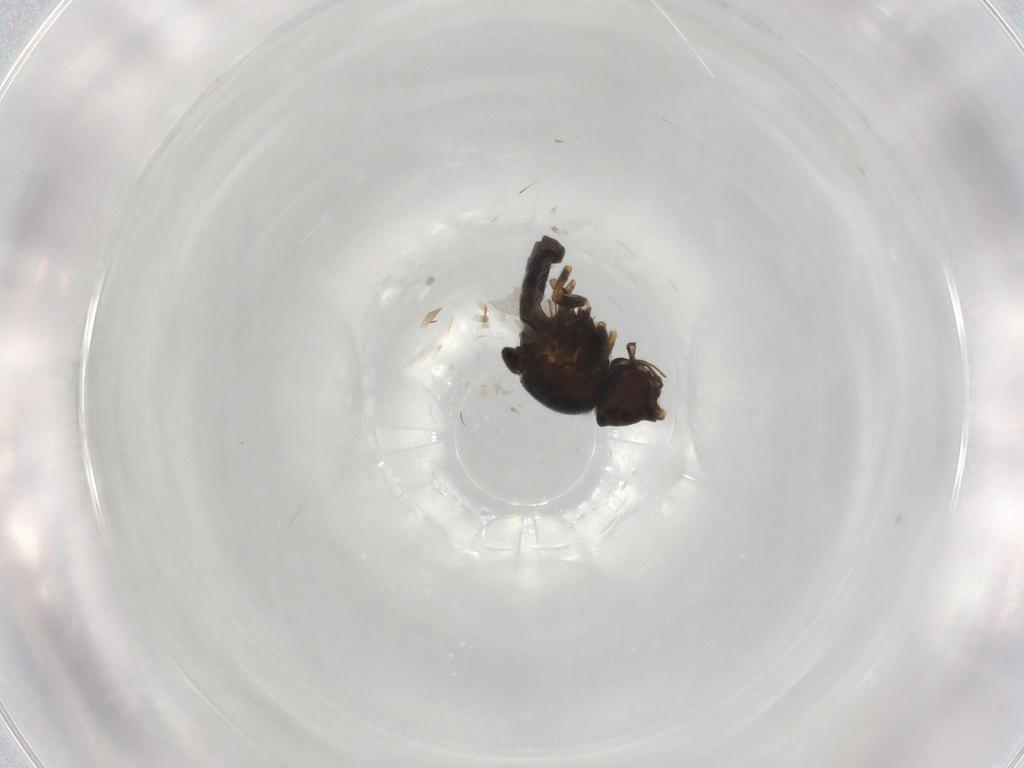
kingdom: Animalia
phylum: Arthropoda
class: Insecta
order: Diptera
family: Chloropidae
